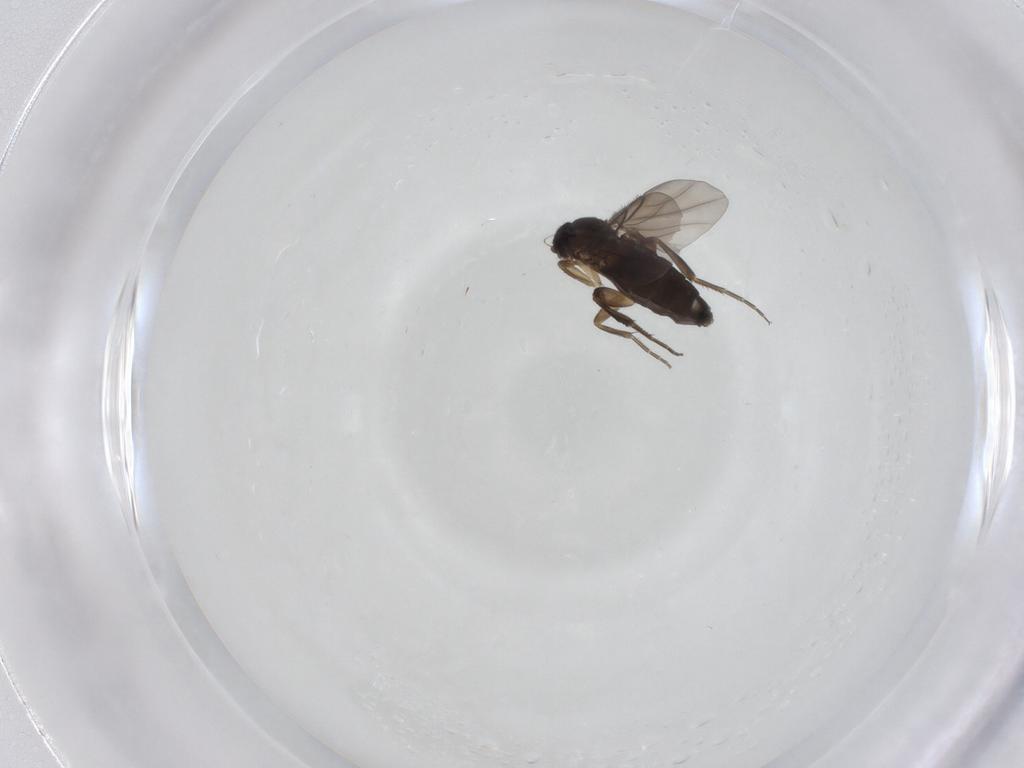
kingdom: Animalia
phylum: Arthropoda
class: Insecta
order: Diptera
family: Phoridae
